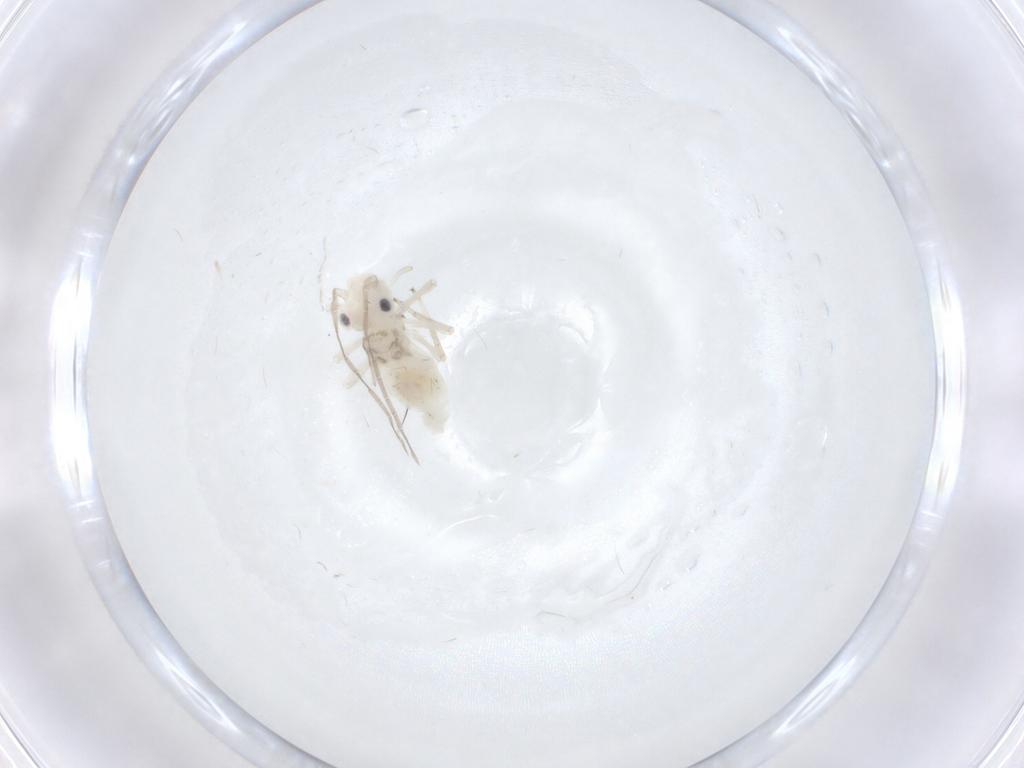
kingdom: Animalia
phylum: Arthropoda
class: Insecta
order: Psocodea
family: Caeciliusidae
